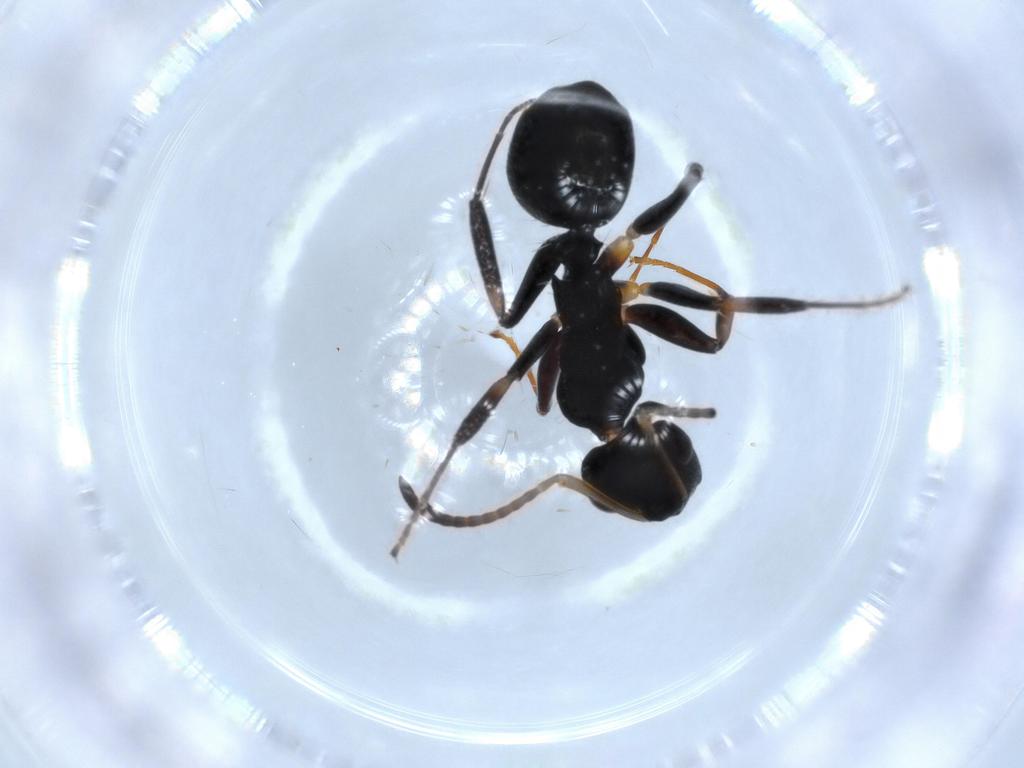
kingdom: Animalia
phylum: Arthropoda
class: Insecta
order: Hymenoptera
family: Formicidae
